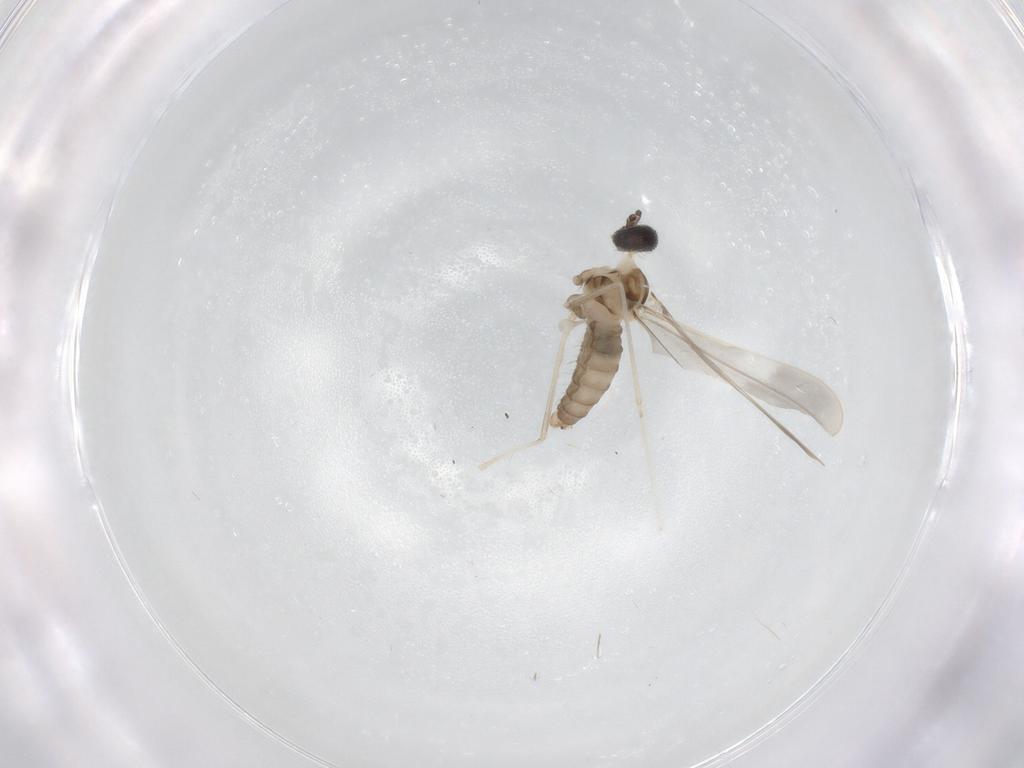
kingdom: Animalia
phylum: Arthropoda
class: Insecta
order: Diptera
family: Cecidomyiidae
